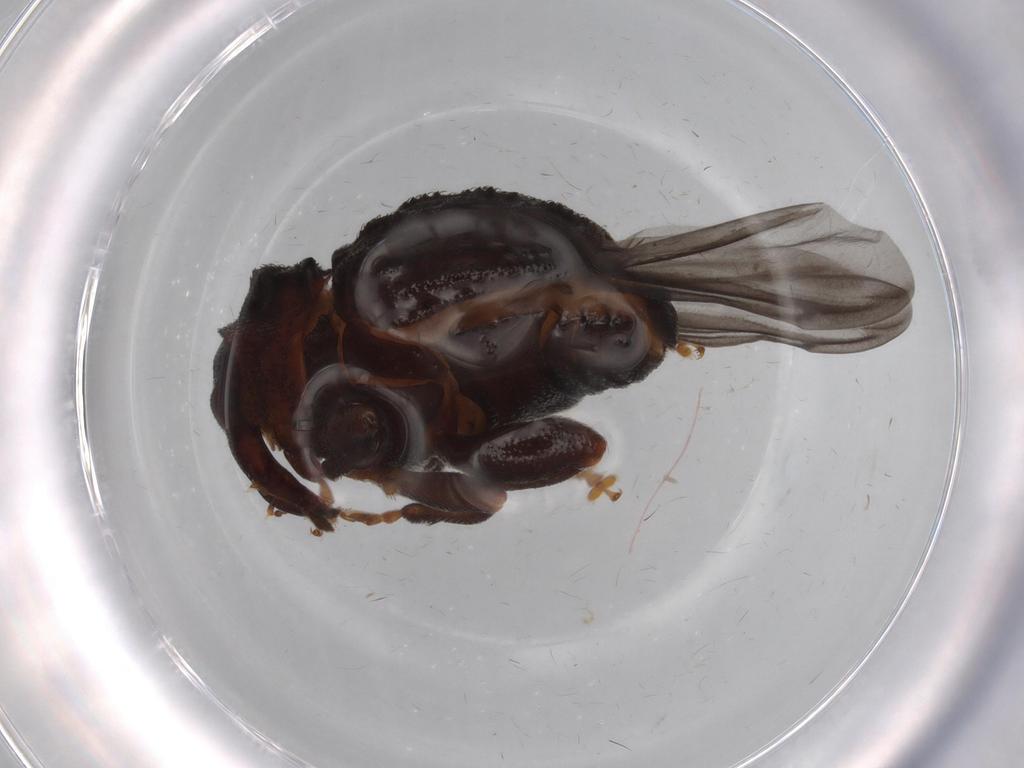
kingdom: Animalia
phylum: Arthropoda
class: Insecta
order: Coleoptera
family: Curculionidae
